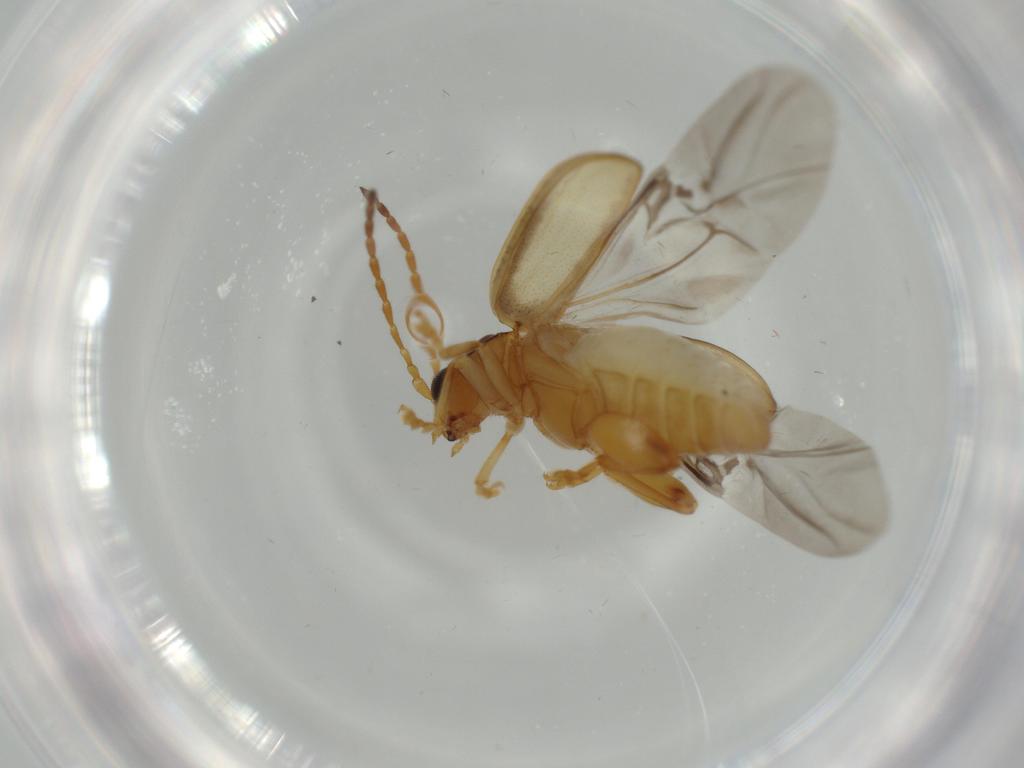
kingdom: Animalia
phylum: Arthropoda
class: Insecta
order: Coleoptera
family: Chrysomelidae
